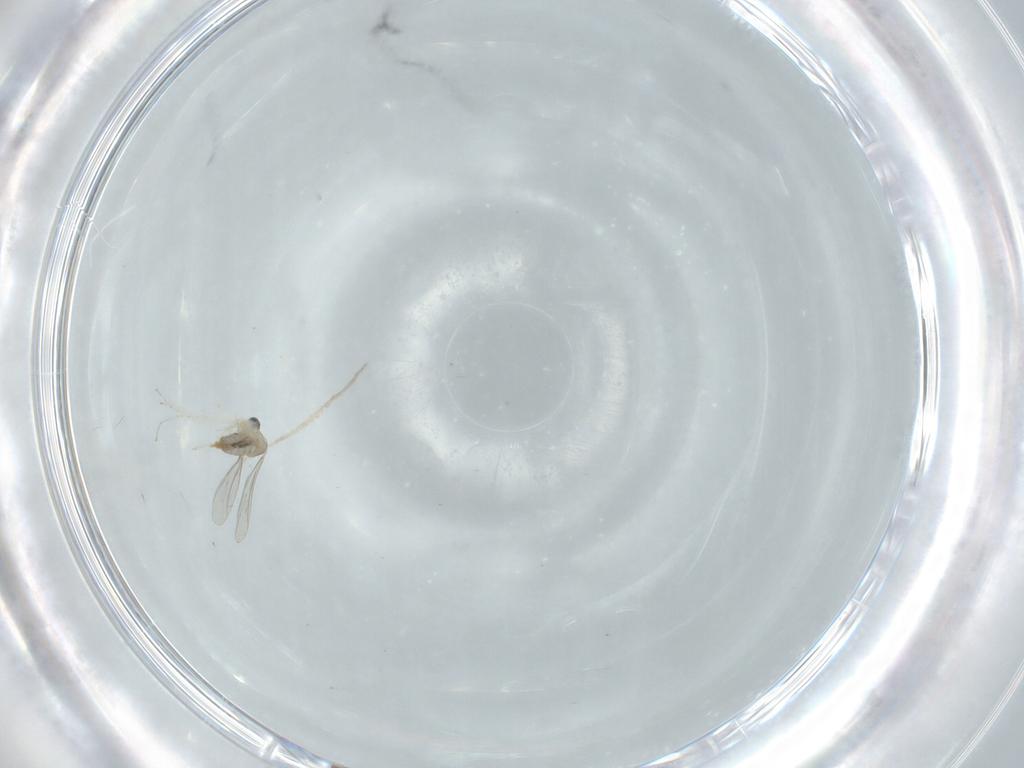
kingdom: Animalia
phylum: Arthropoda
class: Insecta
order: Diptera
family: Cecidomyiidae
